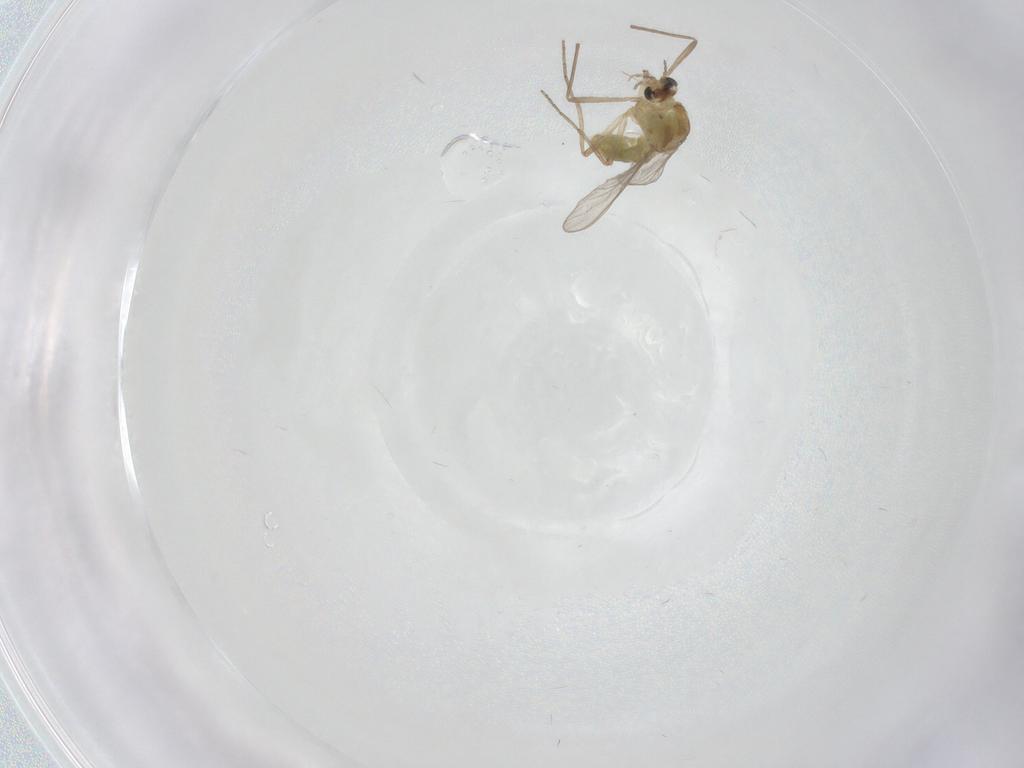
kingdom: Animalia
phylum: Arthropoda
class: Insecta
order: Diptera
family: Chironomidae
